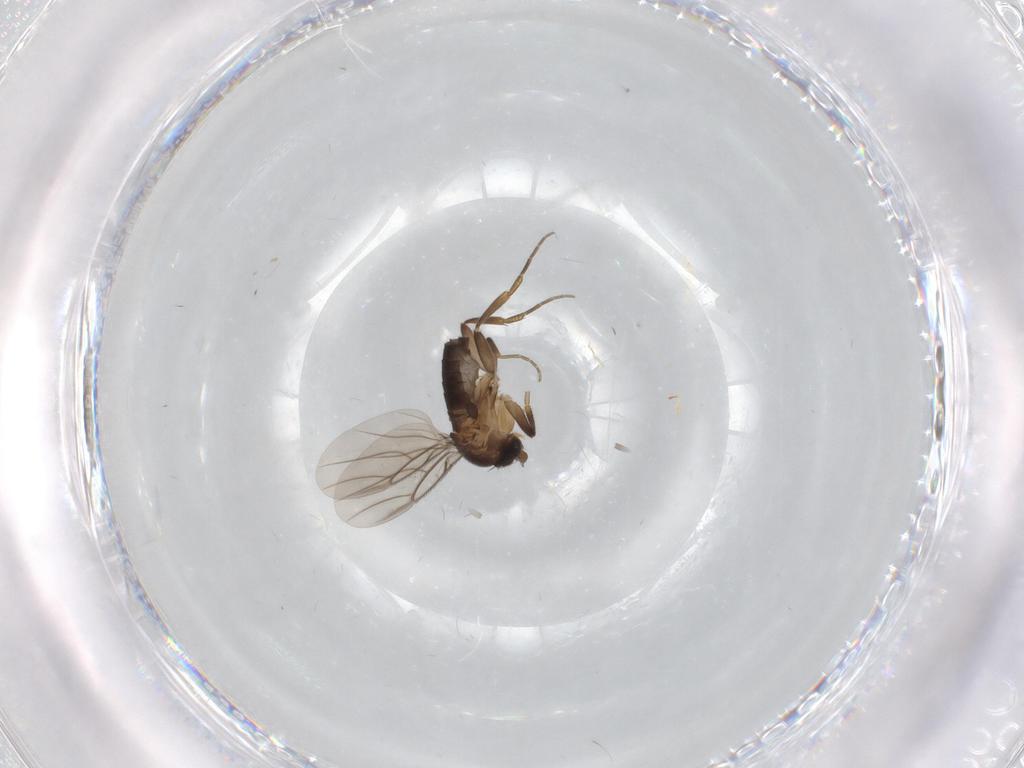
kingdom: Animalia
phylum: Arthropoda
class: Insecta
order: Diptera
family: Phoridae
